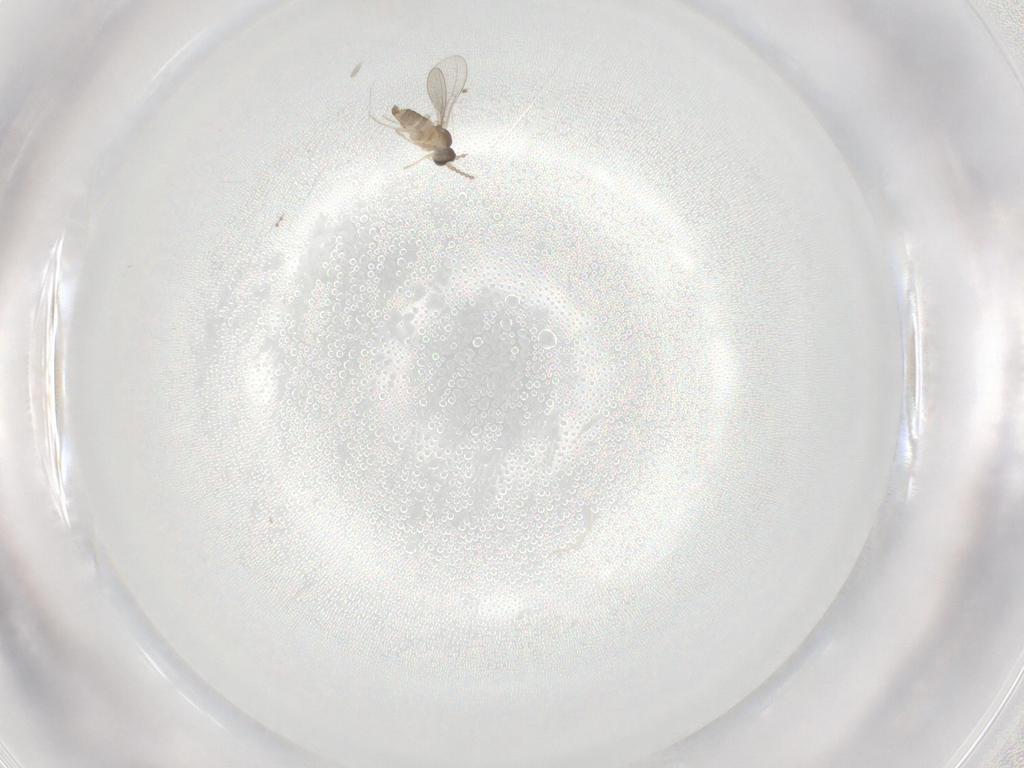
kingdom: Animalia
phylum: Arthropoda
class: Insecta
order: Diptera
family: Cecidomyiidae
